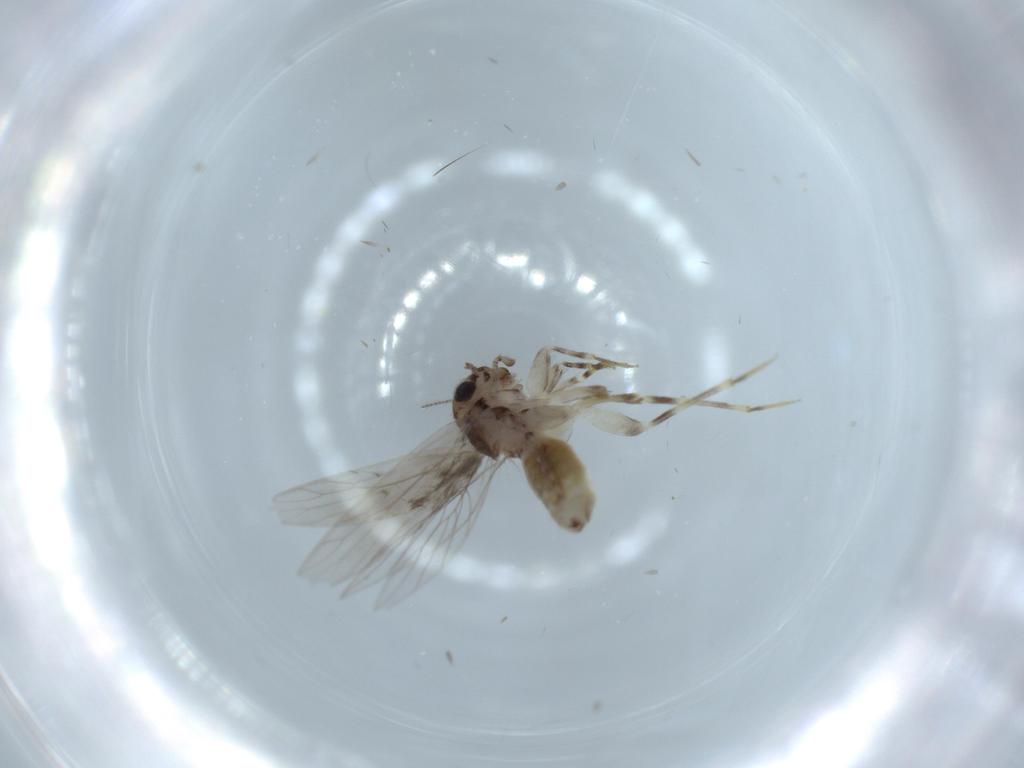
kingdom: Animalia
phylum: Arthropoda
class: Insecta
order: Psocodea
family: Lepidopsocidae
